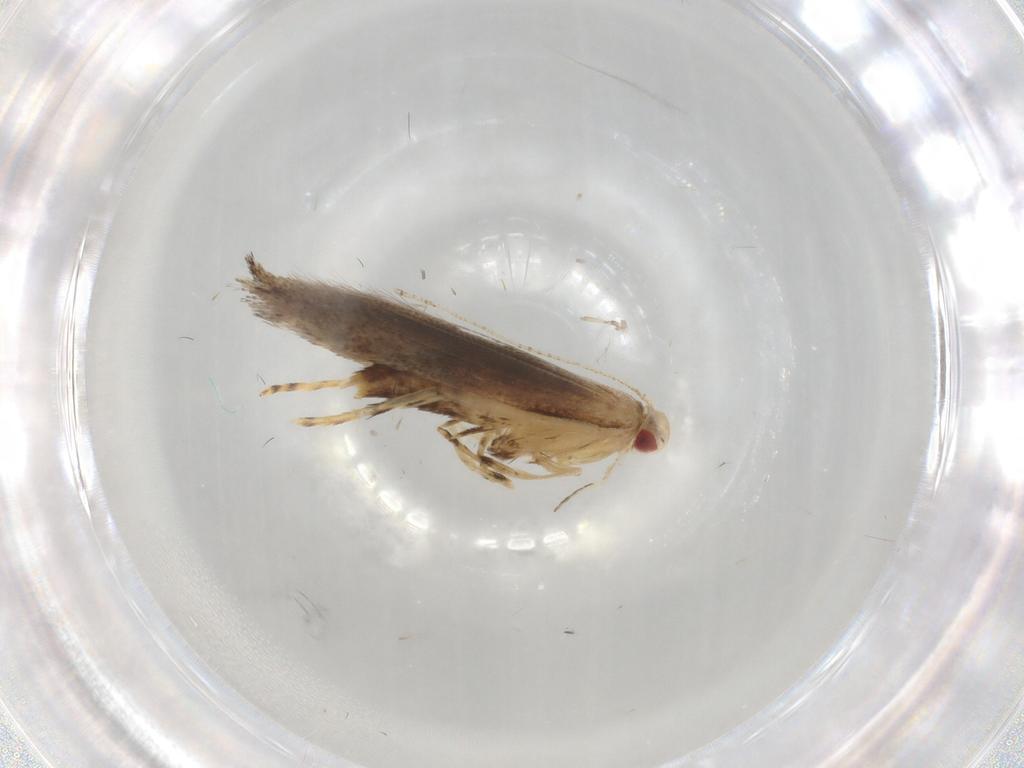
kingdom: Animalia
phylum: Arthropoda
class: Insecta
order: Lepidoptera
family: Erebidae
